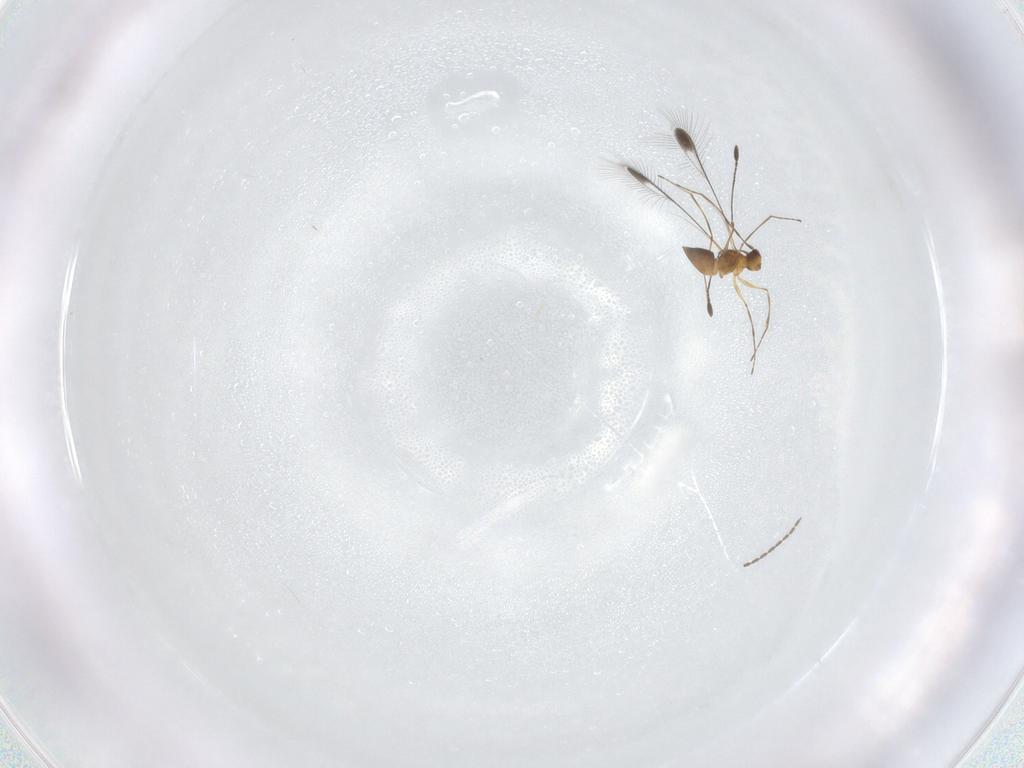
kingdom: Animalia
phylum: Arthropoda
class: Insecta
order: Hymenoptera
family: Mymaridae
